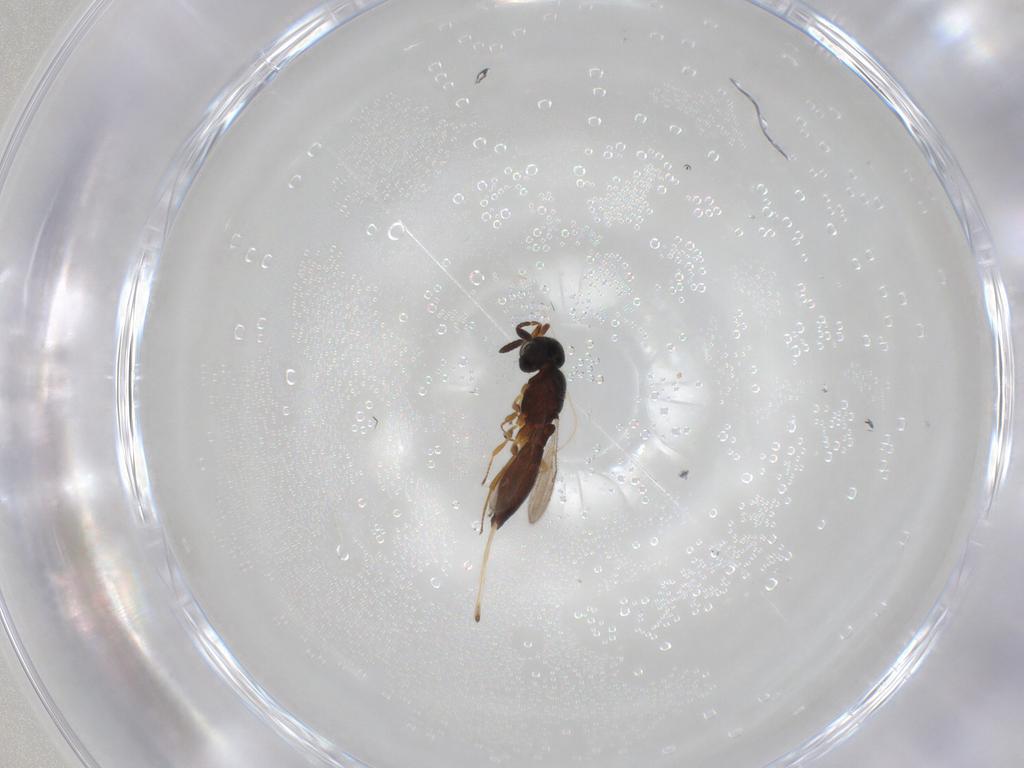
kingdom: Animalia
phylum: Arthropoda
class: Insecta
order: Hymenoptera
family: Scelionidae
